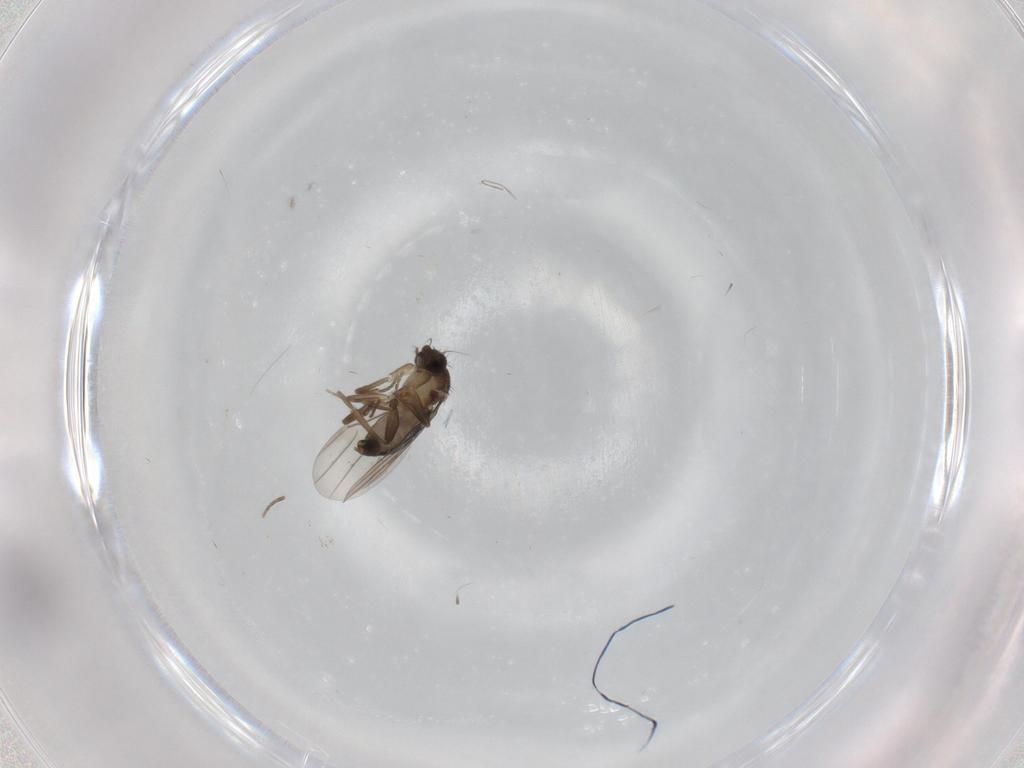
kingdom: Animalia
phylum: Arthropoda
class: Insecta
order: Diptera
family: Phoridae
